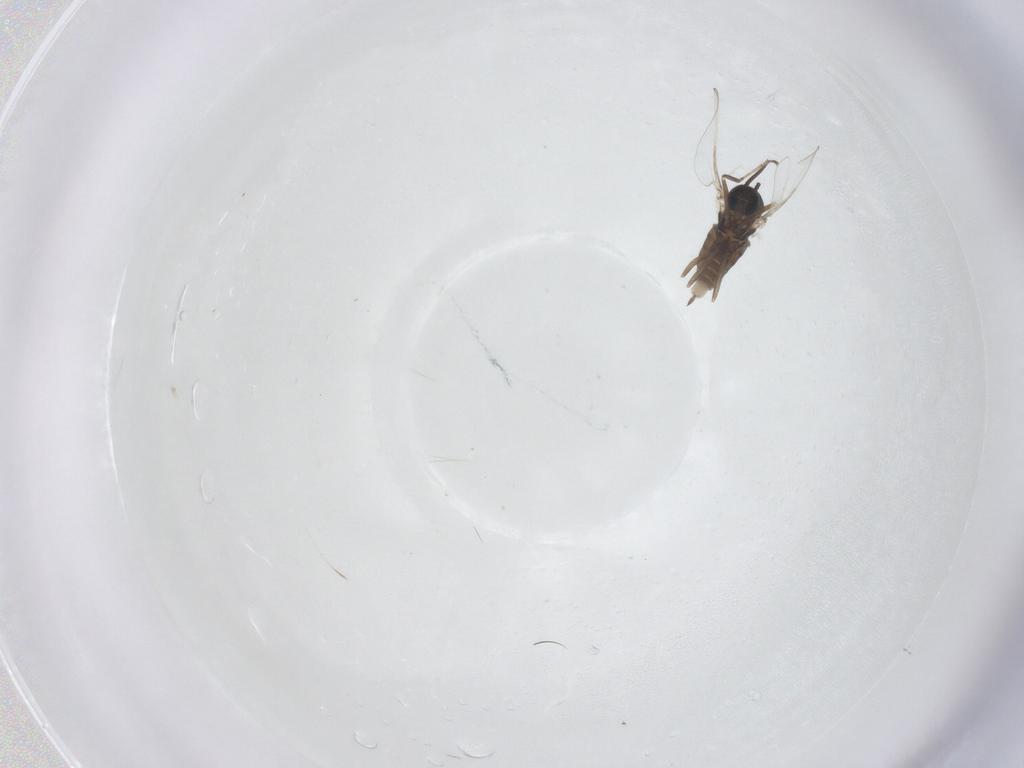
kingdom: Animalia
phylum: Arthropoda
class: Insecta
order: Diptera
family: Cecidomyiidae
